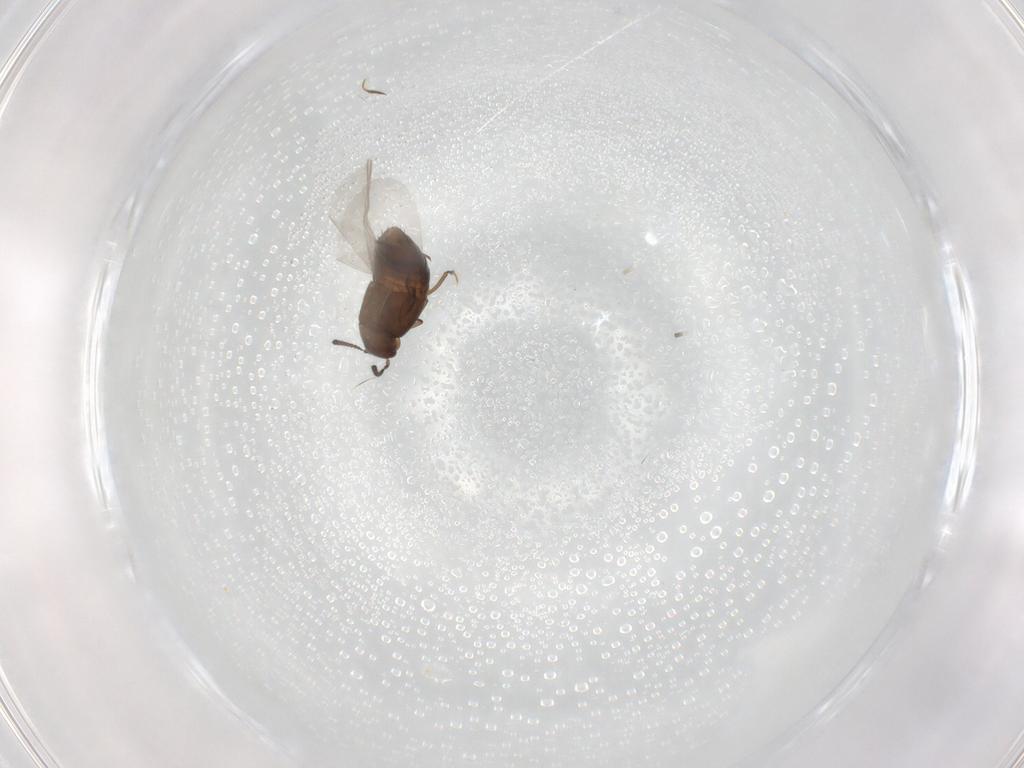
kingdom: Animalia
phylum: Arthropoda
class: Insecta
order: Coleoptera
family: Staphylinidae
